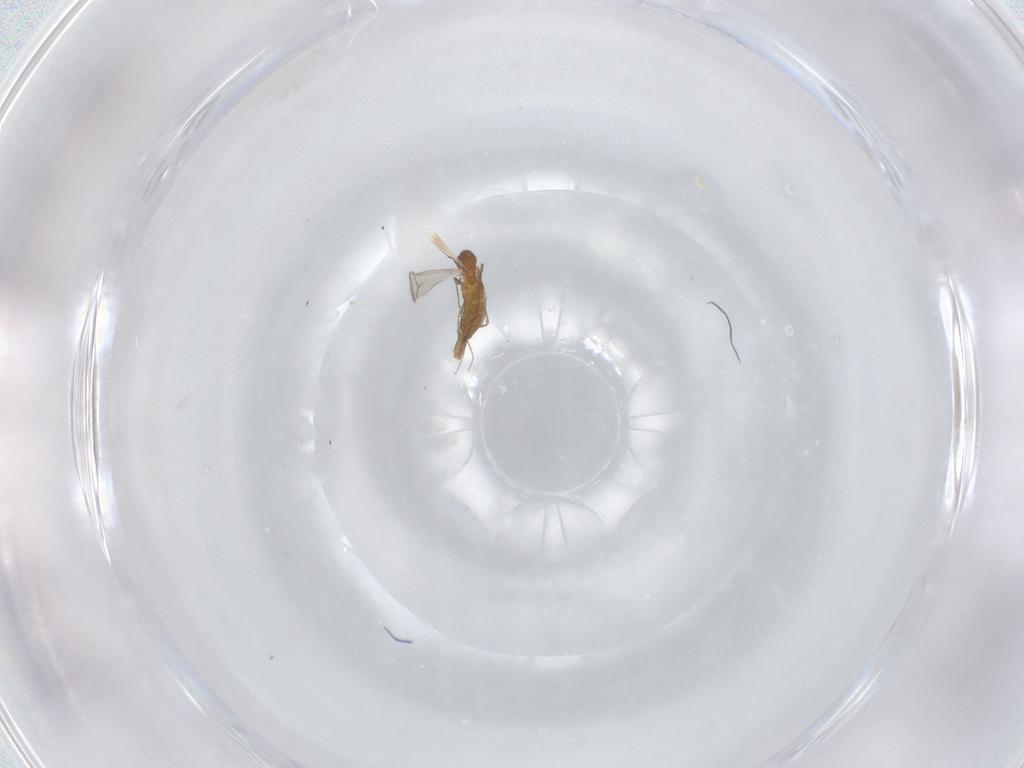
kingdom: Animalia
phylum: Arthropoda
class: Insecta
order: Diptera
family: Chironomidae
